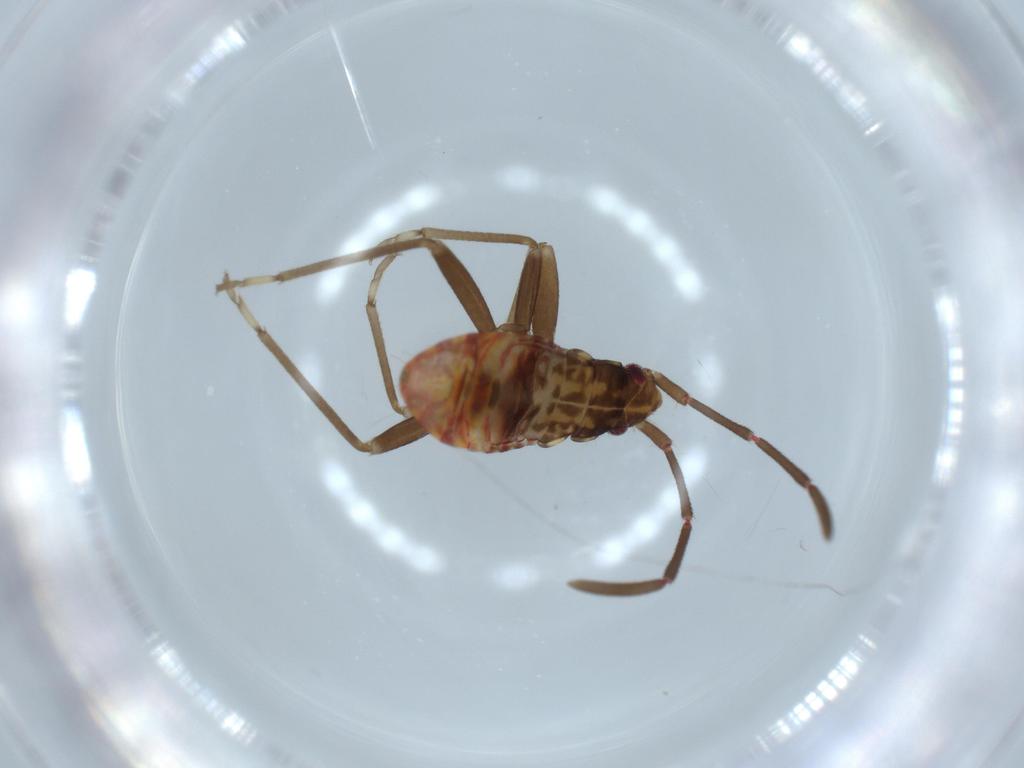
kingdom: Animalia
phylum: Arthropoda
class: Insecta
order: Hemiptera
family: Rhyparochromidae
